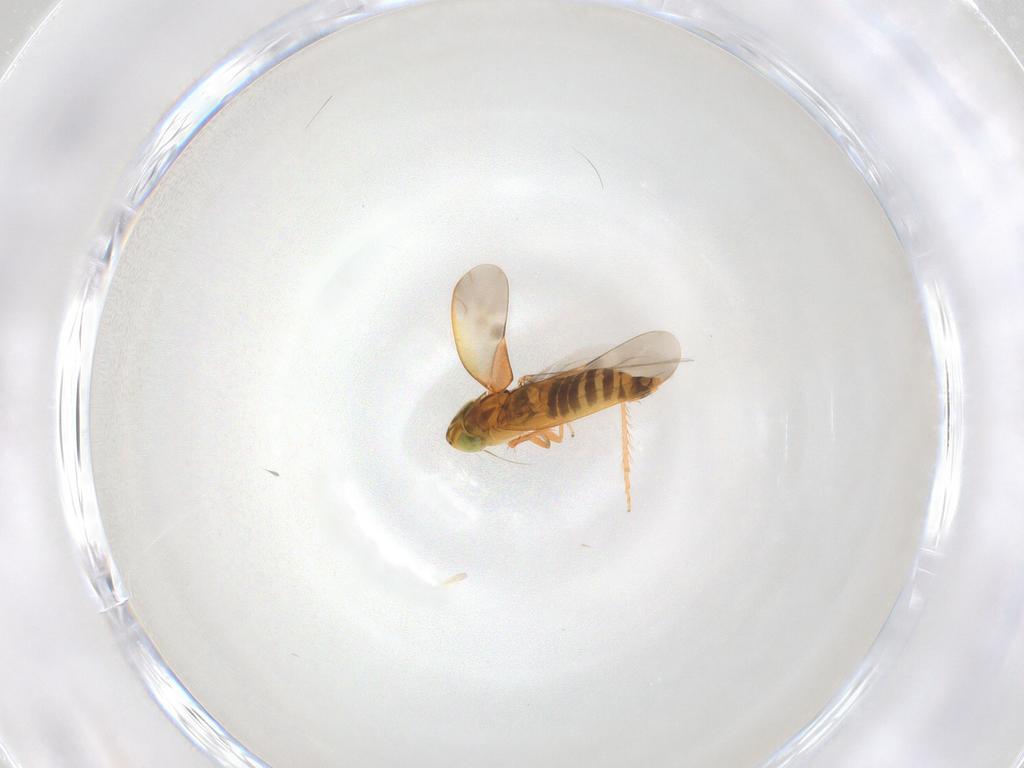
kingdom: Animalia
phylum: Arthropoda
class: Insecta
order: Hemiptera
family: Cicadellidae
